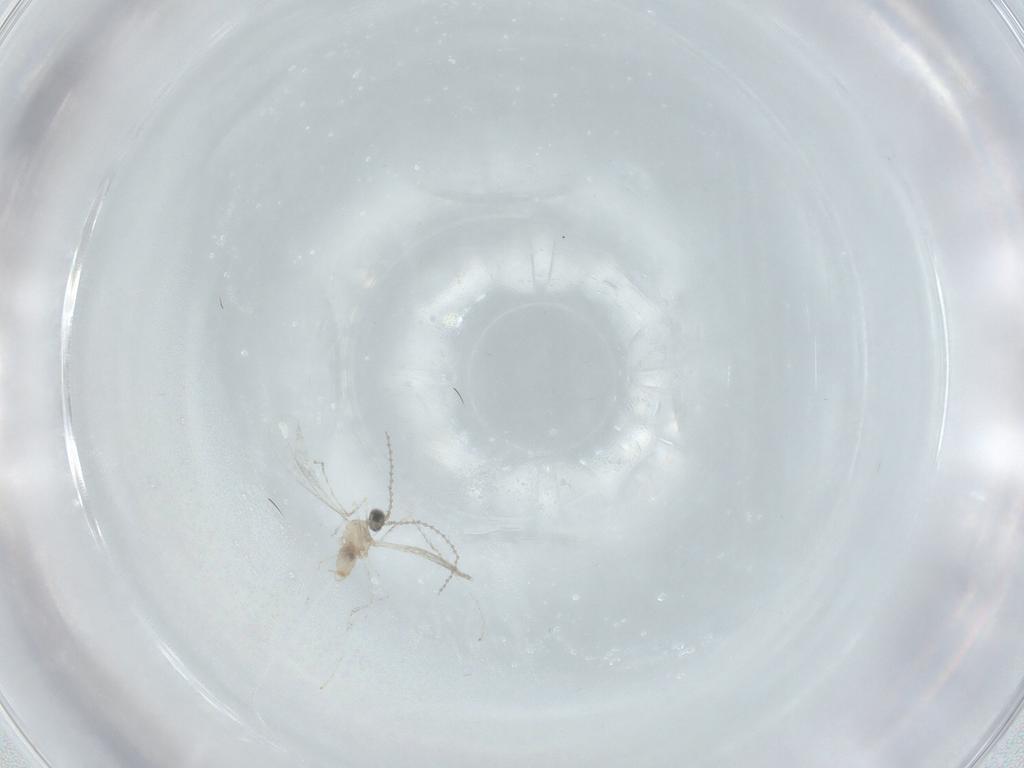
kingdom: Animalia
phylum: Arthropoda
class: Insecta
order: Diptera
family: Cecidomyiidae
